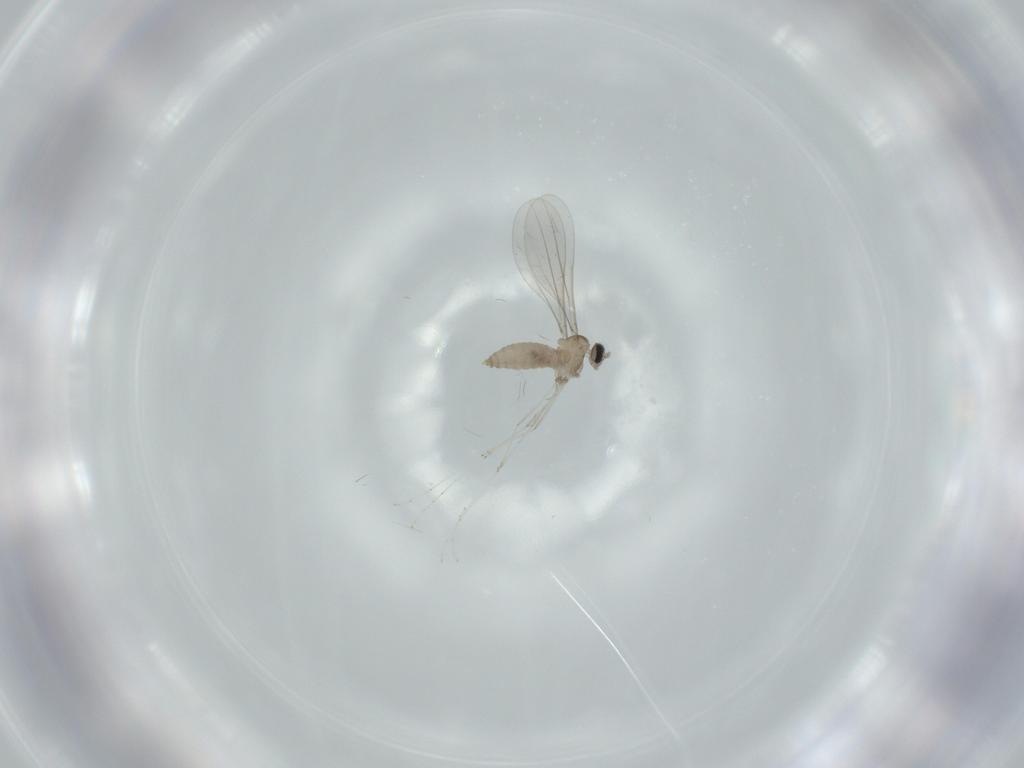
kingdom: Animalia
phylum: Arthropoda
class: Insecta
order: Diptera
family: Cecidomyiidae
